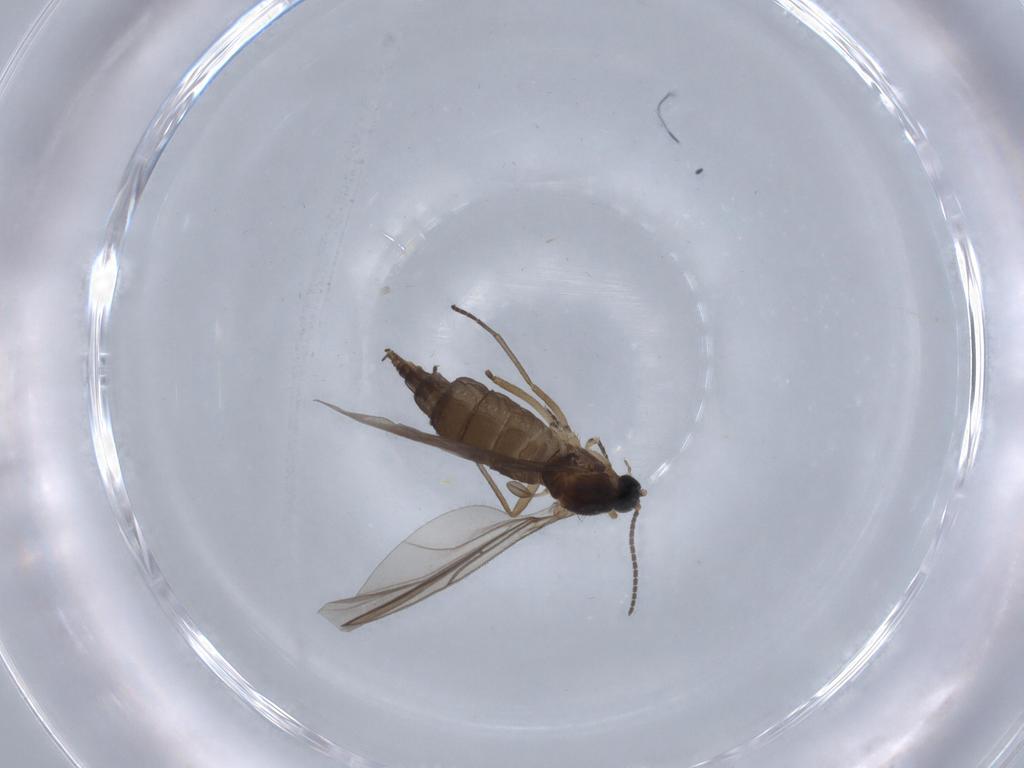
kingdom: Animalia
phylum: Arthropoda
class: Insecta
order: Diptera
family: Sciaridae
